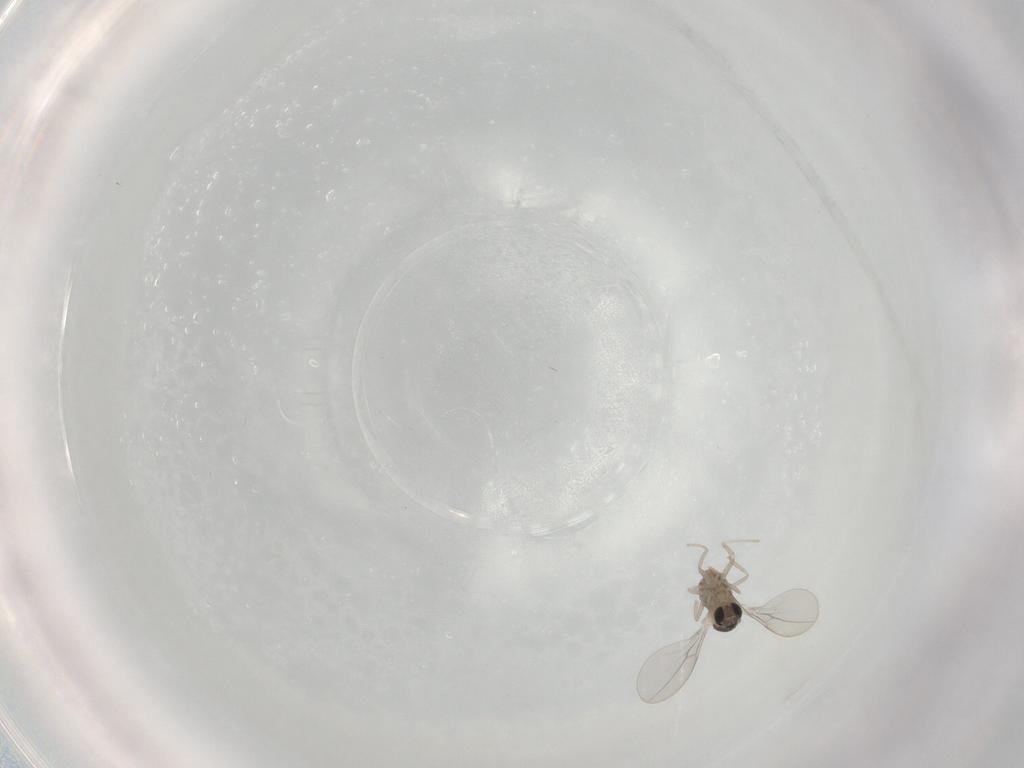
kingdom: Animalia
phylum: Arthropoda
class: Insecta
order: Diptera
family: Cecidomyiidae
